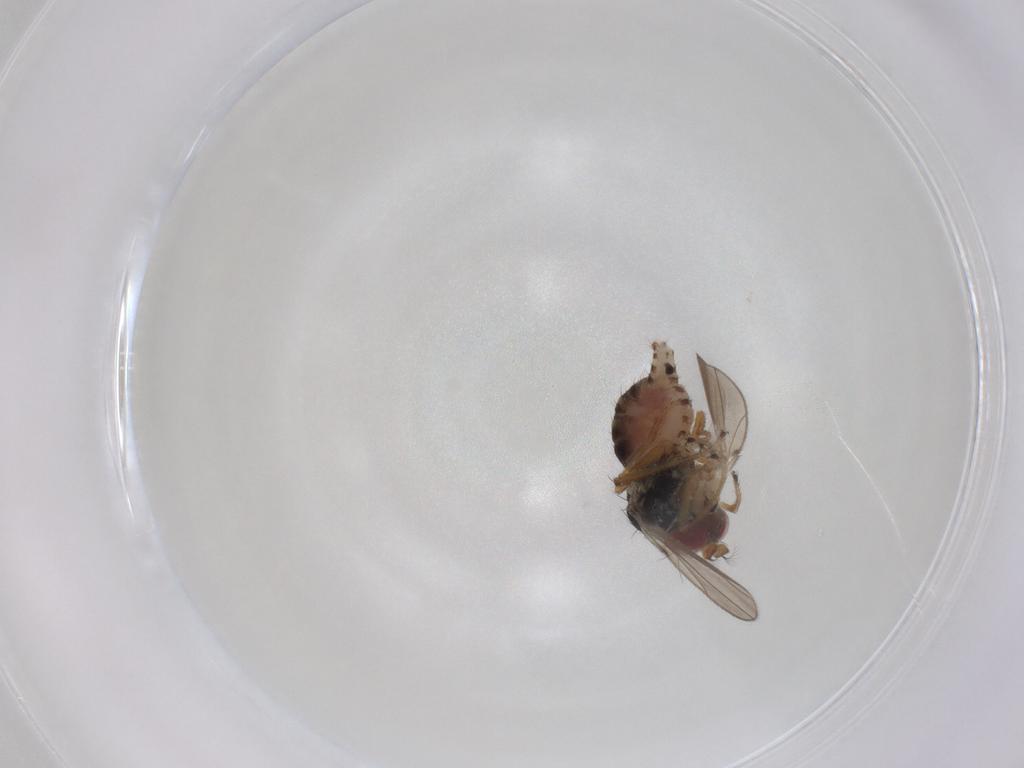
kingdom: Animalia
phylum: Arthropoda
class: Insecta
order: Diptera
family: Ephydridae
